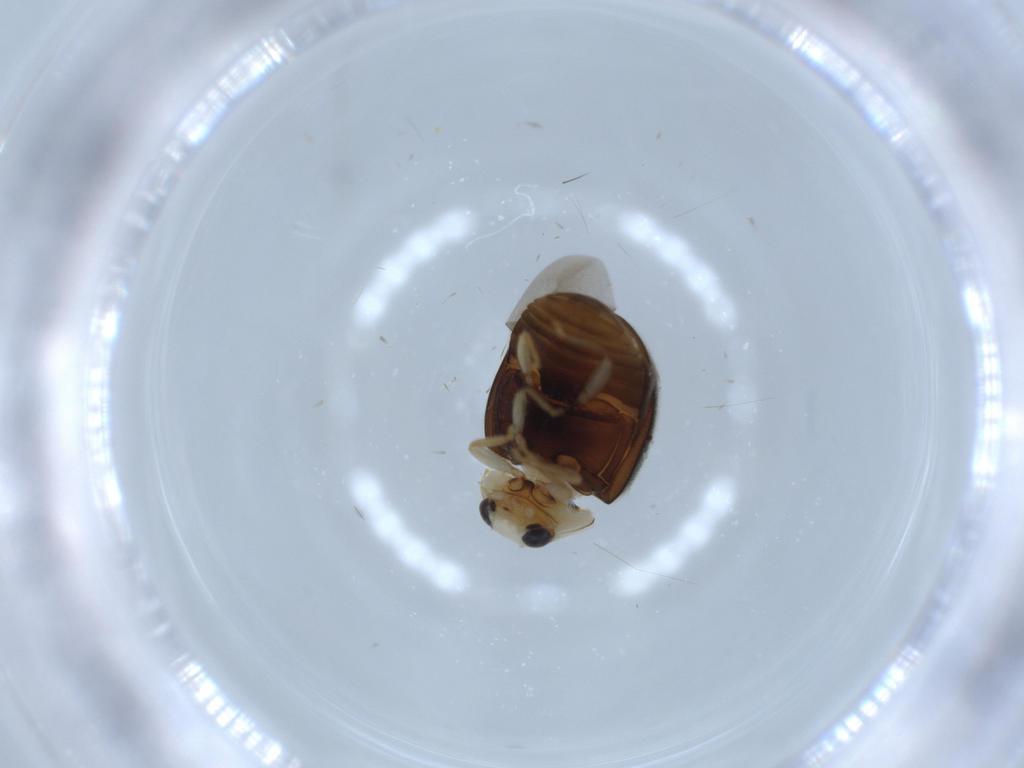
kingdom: Animalia
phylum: Arthropoda
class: Insecta
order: Coleoptera
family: Coccinellidae
